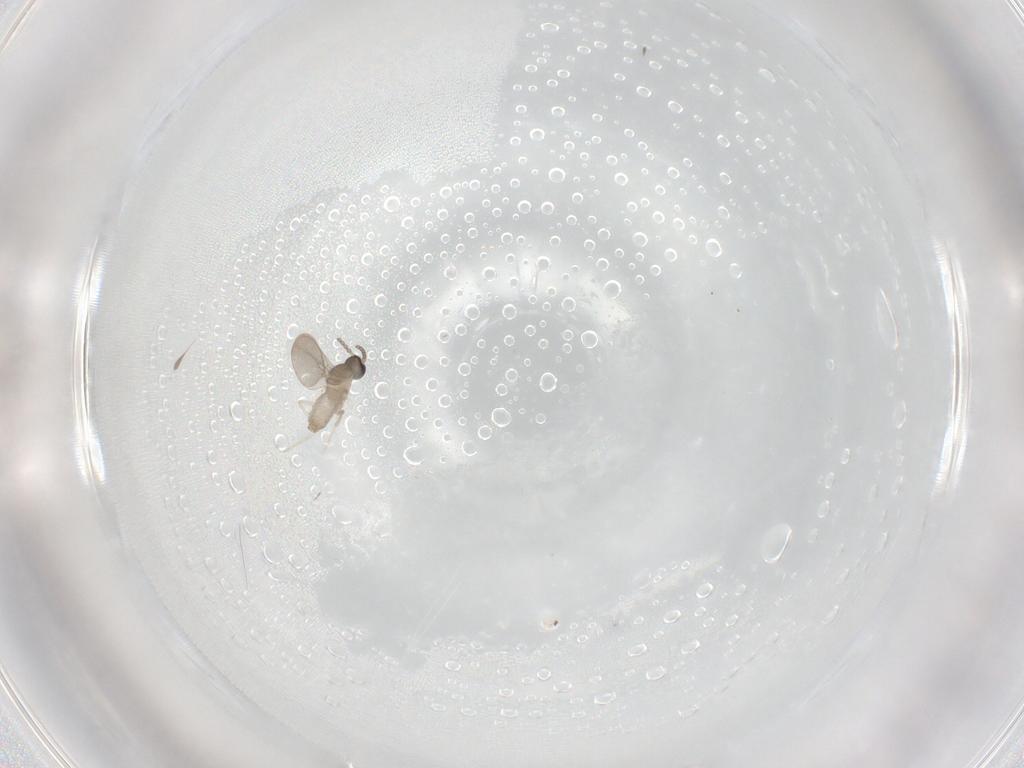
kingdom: Animalia
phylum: Arthropoda
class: Insecta
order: Diptera
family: Cecidomyiidae
